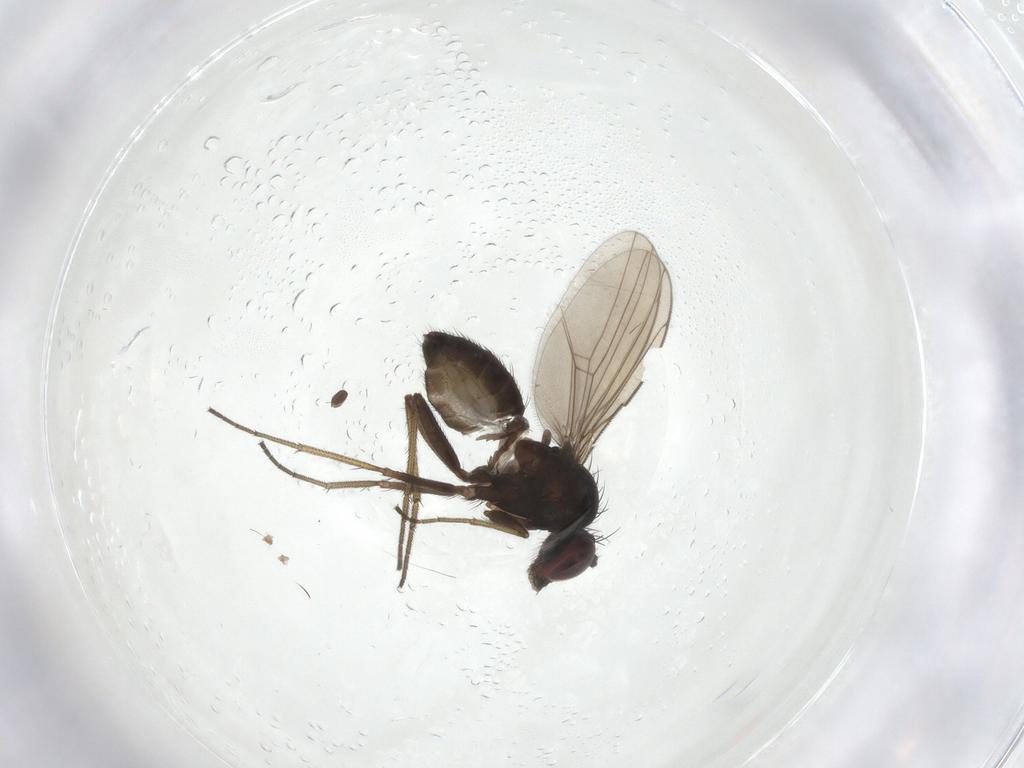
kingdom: Animalia
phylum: Arthropoda
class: Insecta
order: Diptera
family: Dolichopodidae
